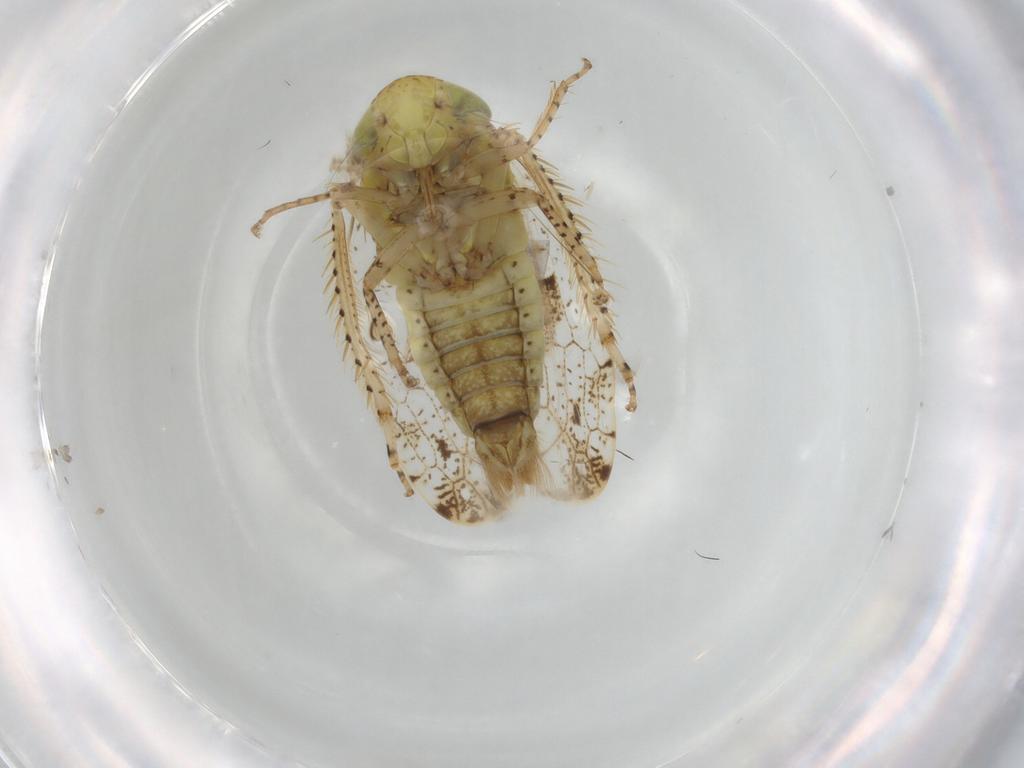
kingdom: Animalia
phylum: Arthropoda
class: Insecta
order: Hemiptera
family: Cicadellidae
